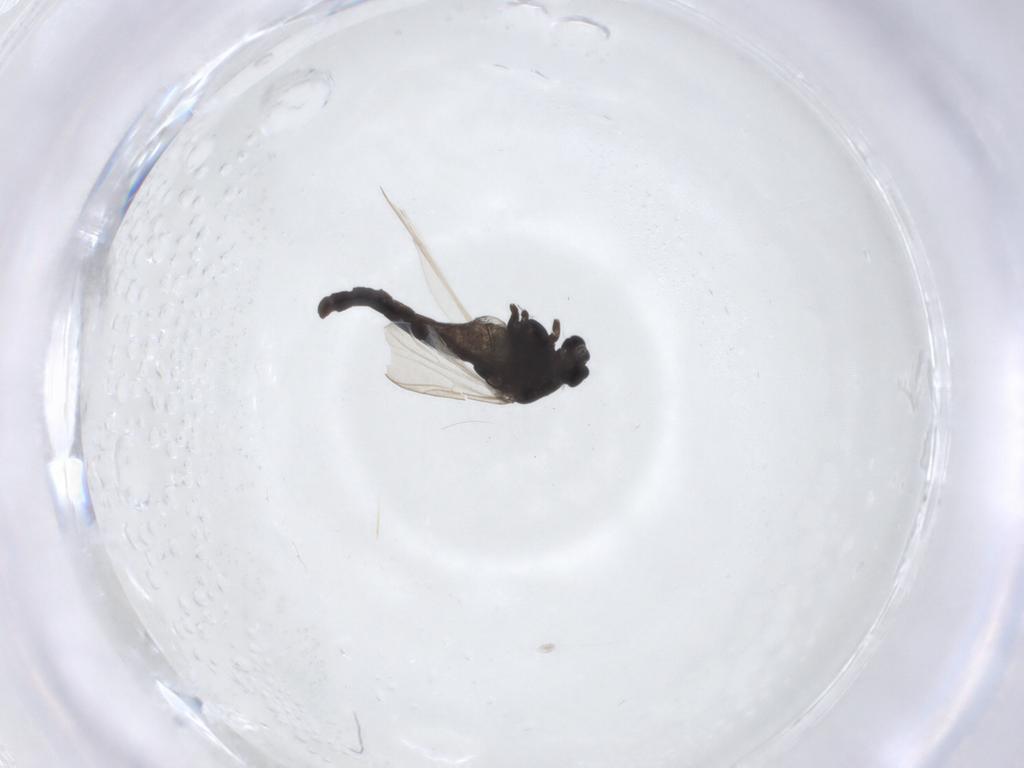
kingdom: Animalia
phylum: Arthropoda
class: Insecta
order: Diptera
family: Chironomidae
